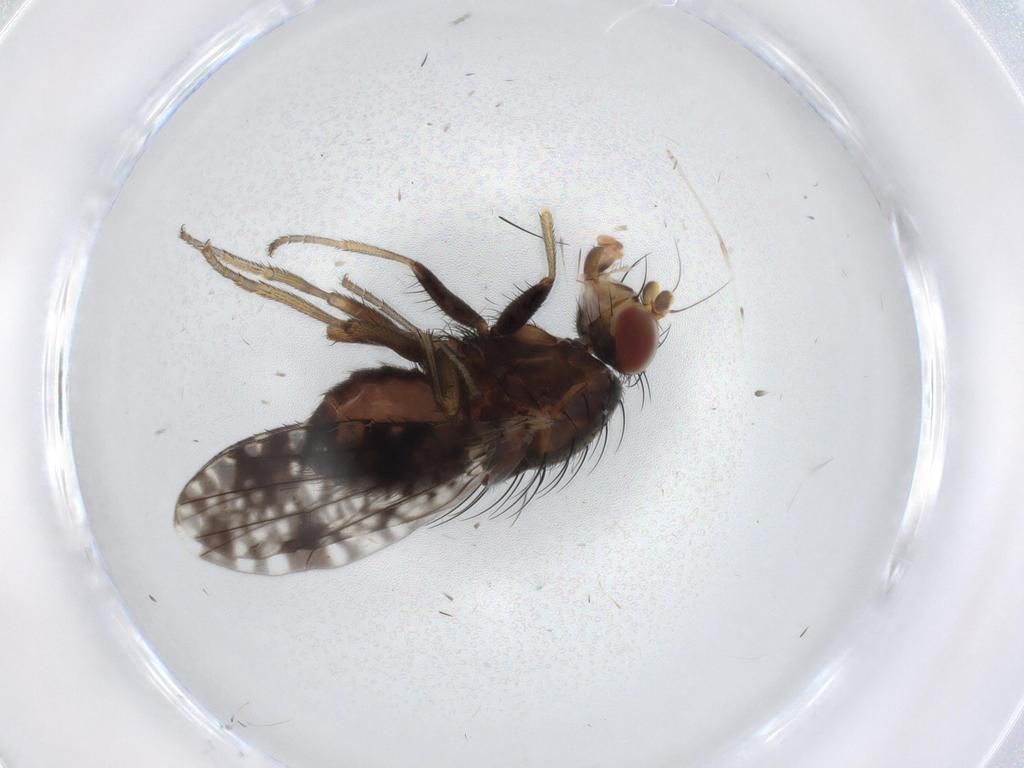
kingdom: Animalia
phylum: Arthropoda
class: Insecta
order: Diptera
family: Tephritidae
